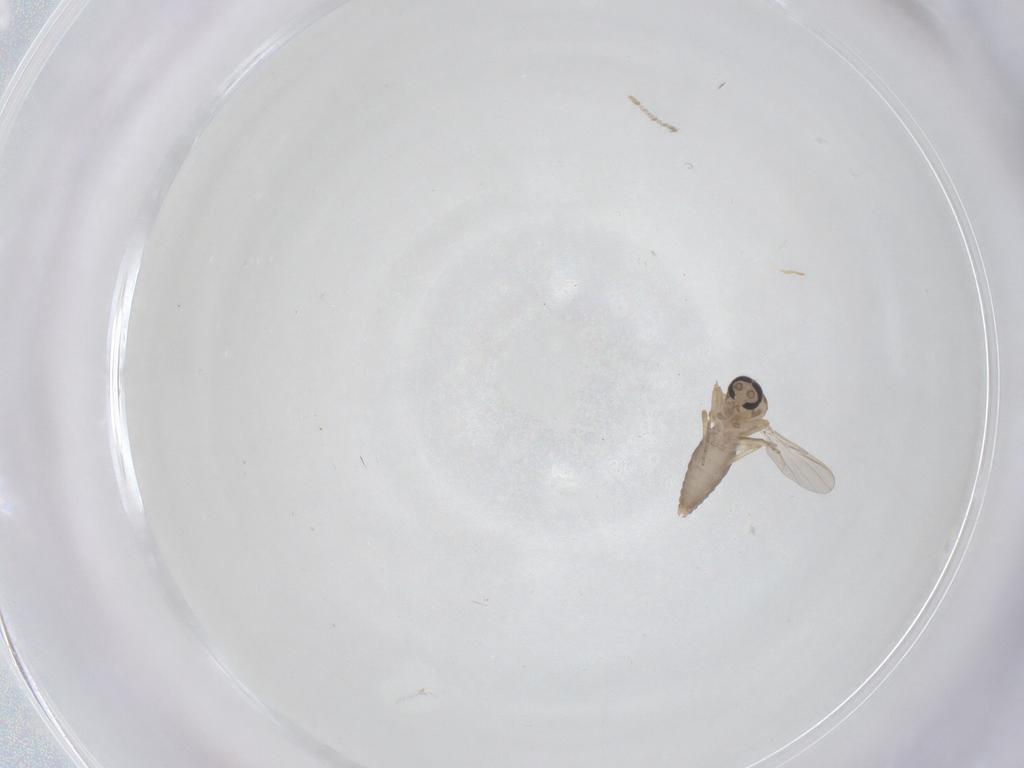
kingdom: Animalia
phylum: Arthropoda
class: Insecta
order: Diptera
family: Ceratopogonidae
